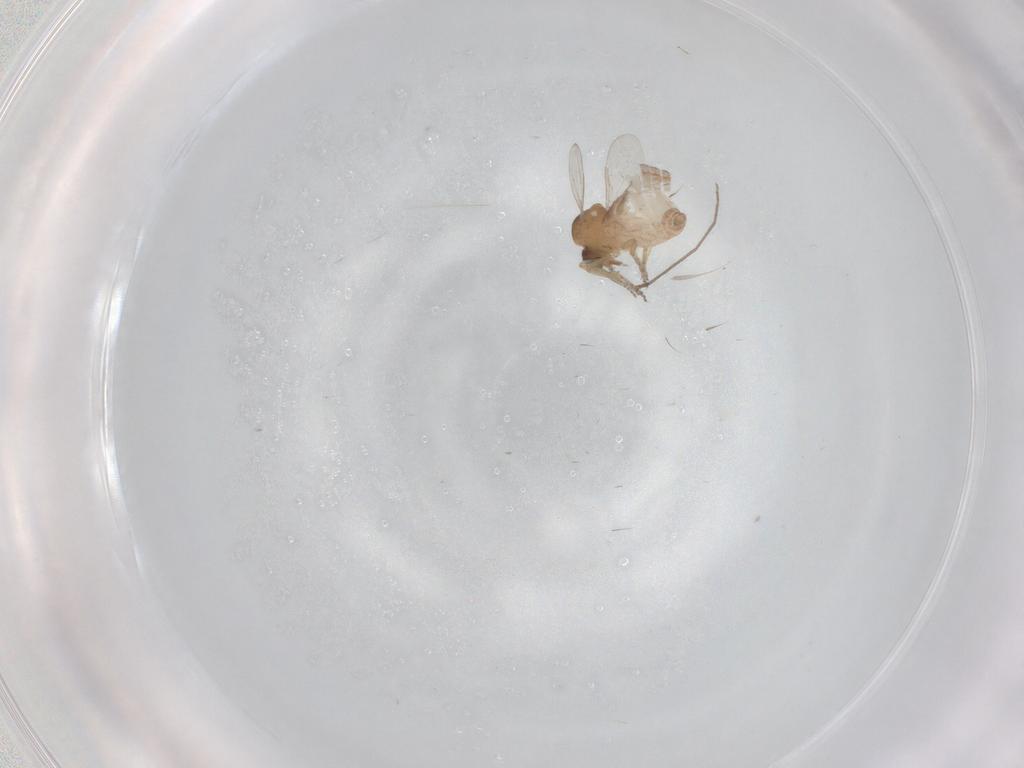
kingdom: Animalia
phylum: Arthropoda
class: Insecta
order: Diptera
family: Ceratopogonidae
